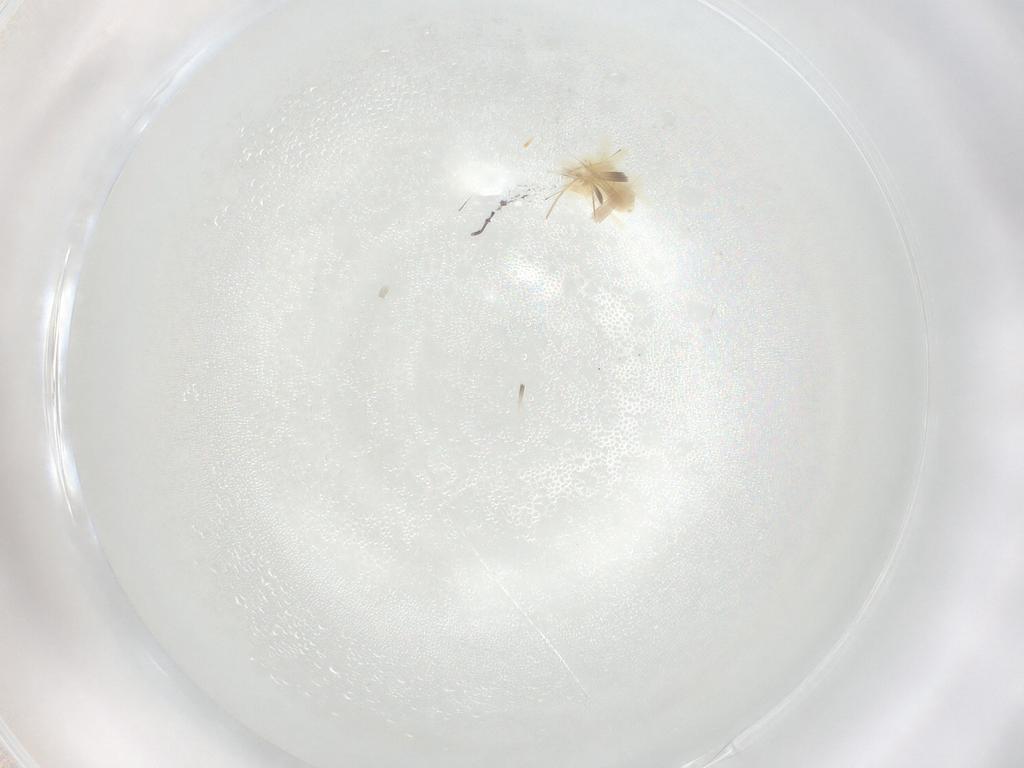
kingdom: Animalia
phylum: Arthropoda
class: Arachnida
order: Trombidiformes
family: Anystidae
